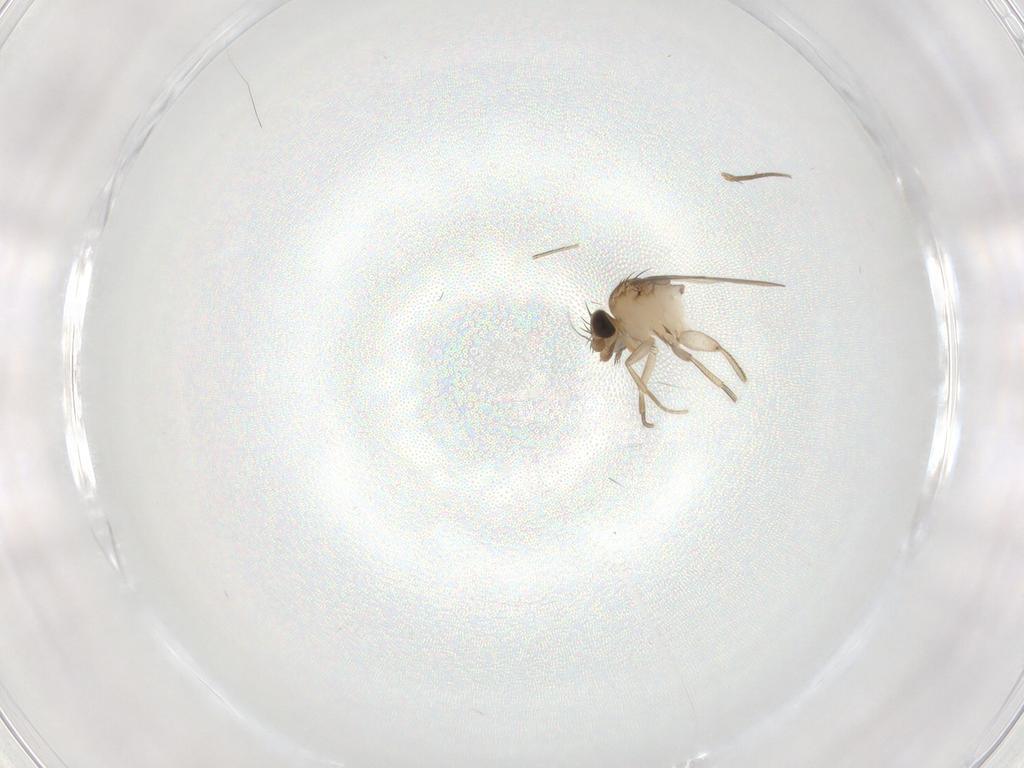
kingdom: Animalia
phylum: Arthropoda
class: Insecta
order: Diptera
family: Phoridae
